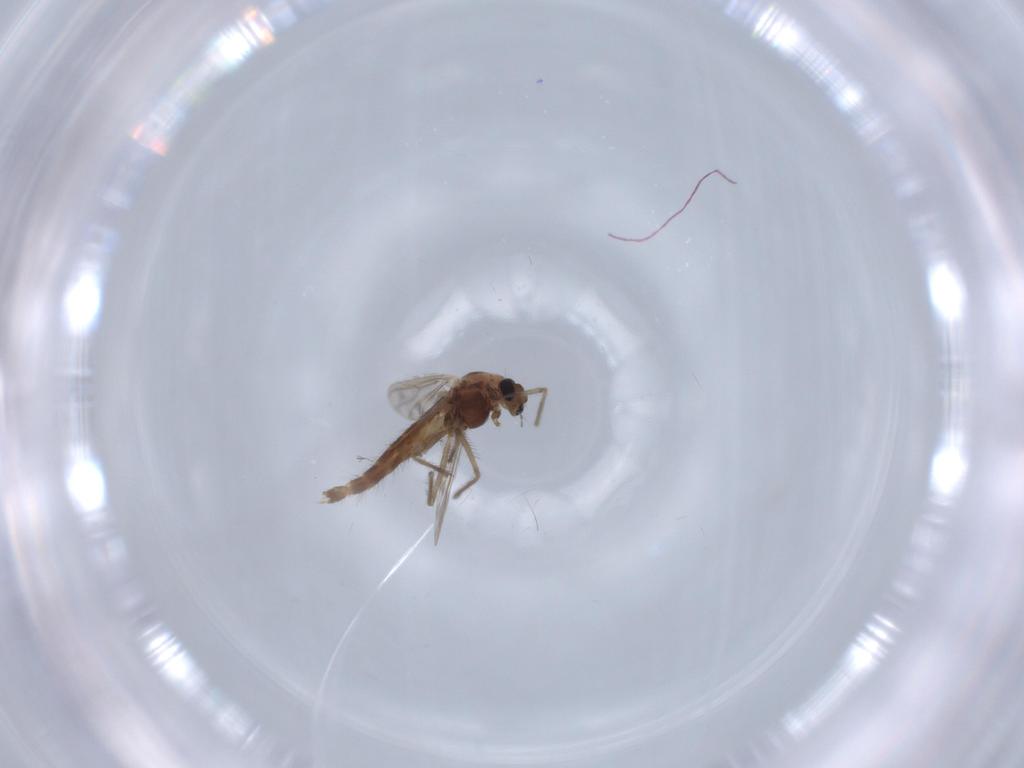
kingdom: Animalia
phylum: Arthropoda
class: Insecta
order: Diptera
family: Chironomidae
